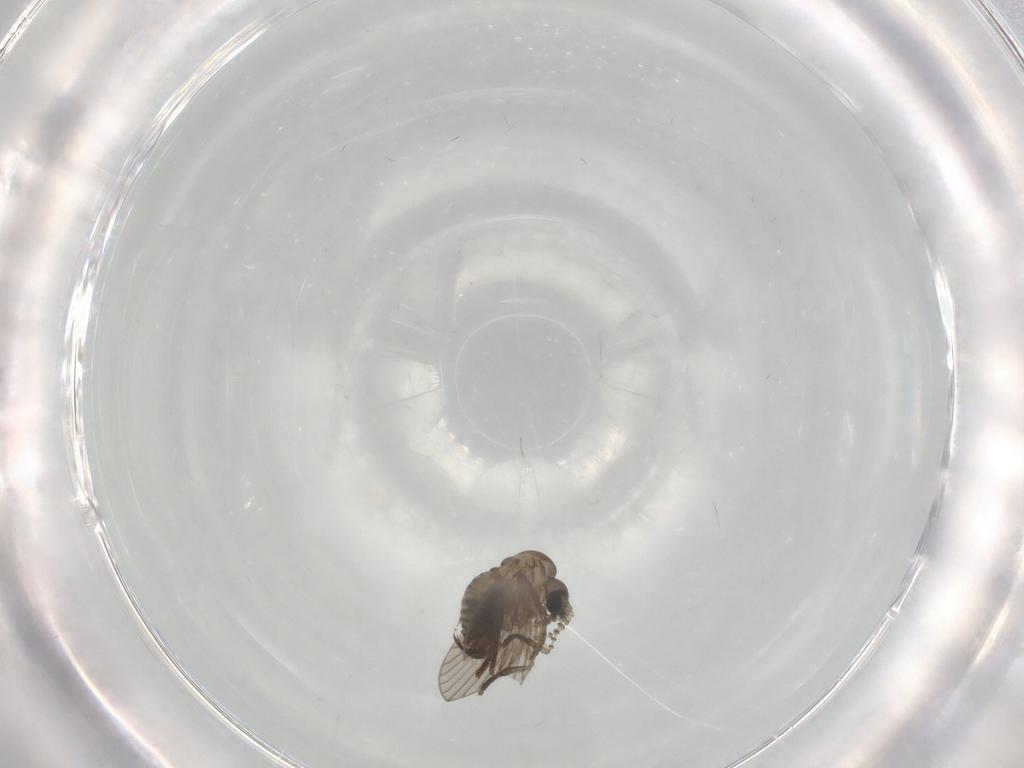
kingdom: Animalia
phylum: Arthropoda
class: Insecta
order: Diptera
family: Psychodidae
